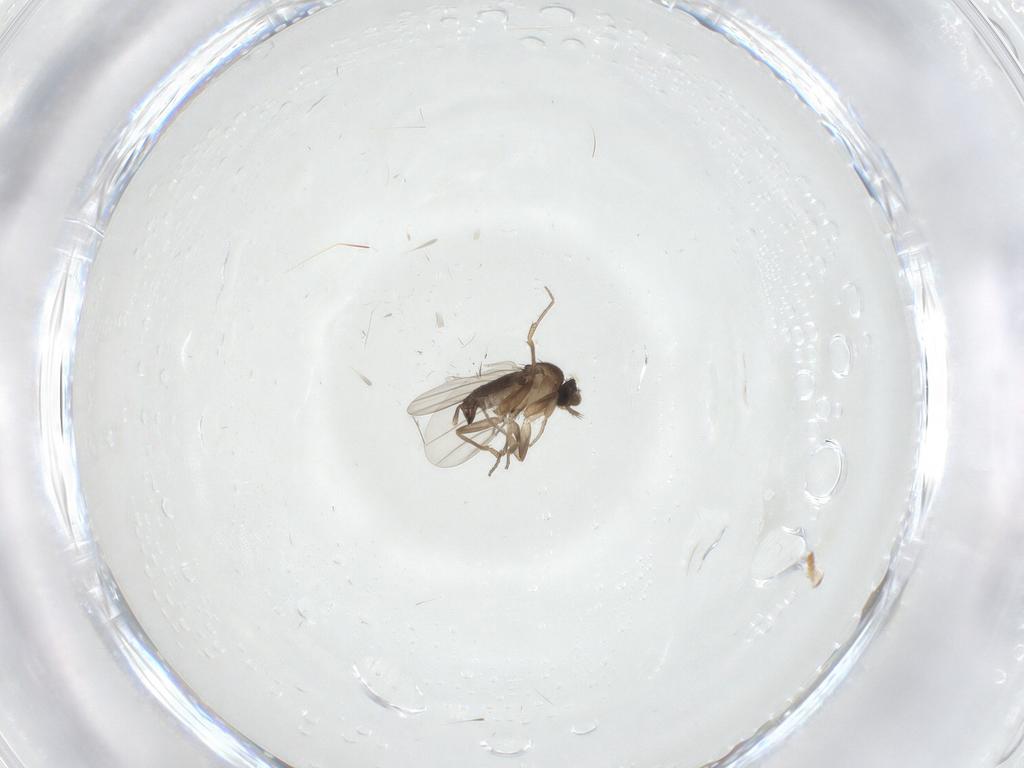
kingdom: Animalia
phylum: Arthropoda
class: Insecta
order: Diptera
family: Phoridae
